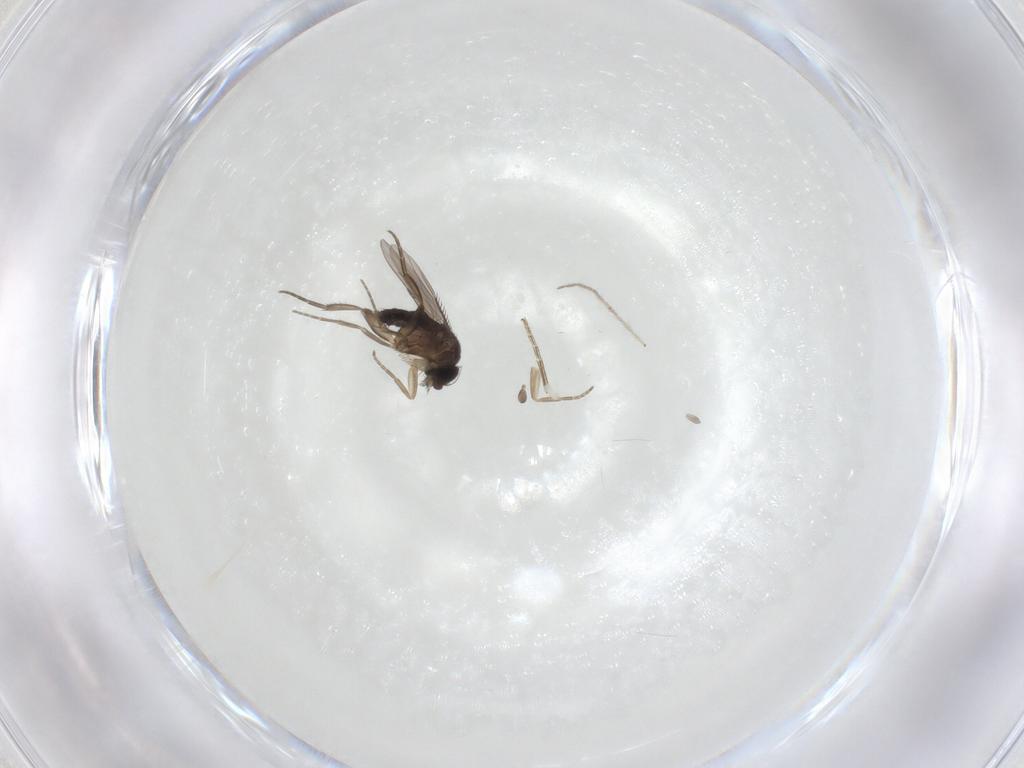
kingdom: Animalia
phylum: Arthropoda
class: Insecta
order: Diptera
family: Phoridae
